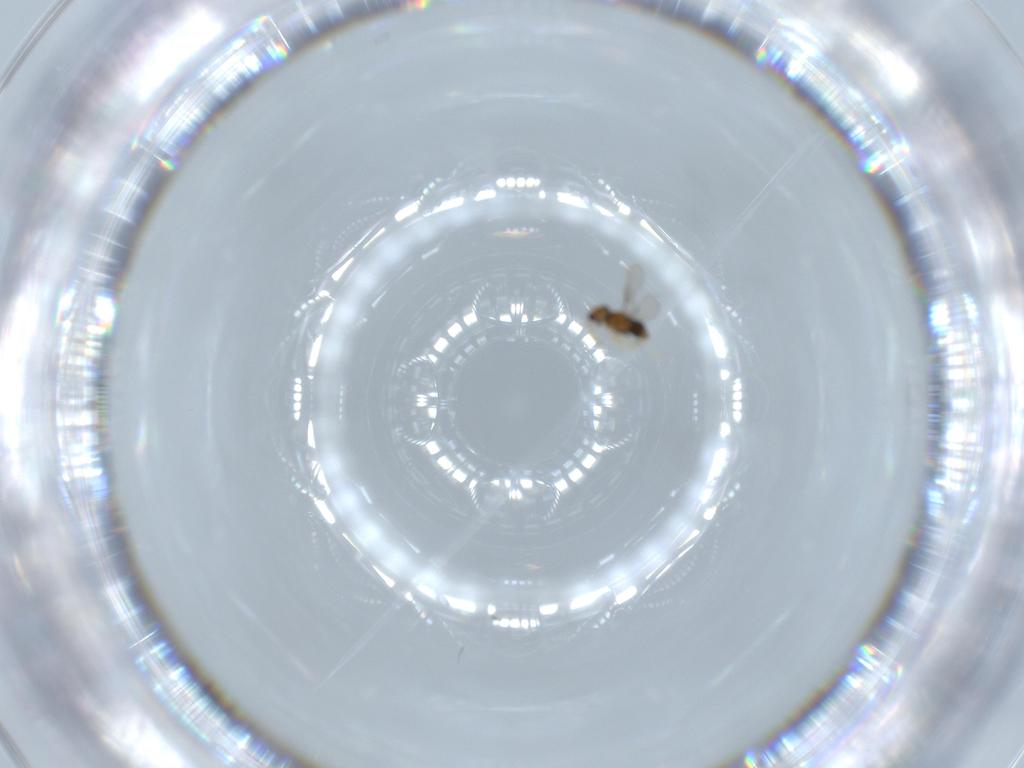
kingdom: Animalia
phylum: Arthropoda
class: Insecta
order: Hymenoptera
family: Aphelinidae
